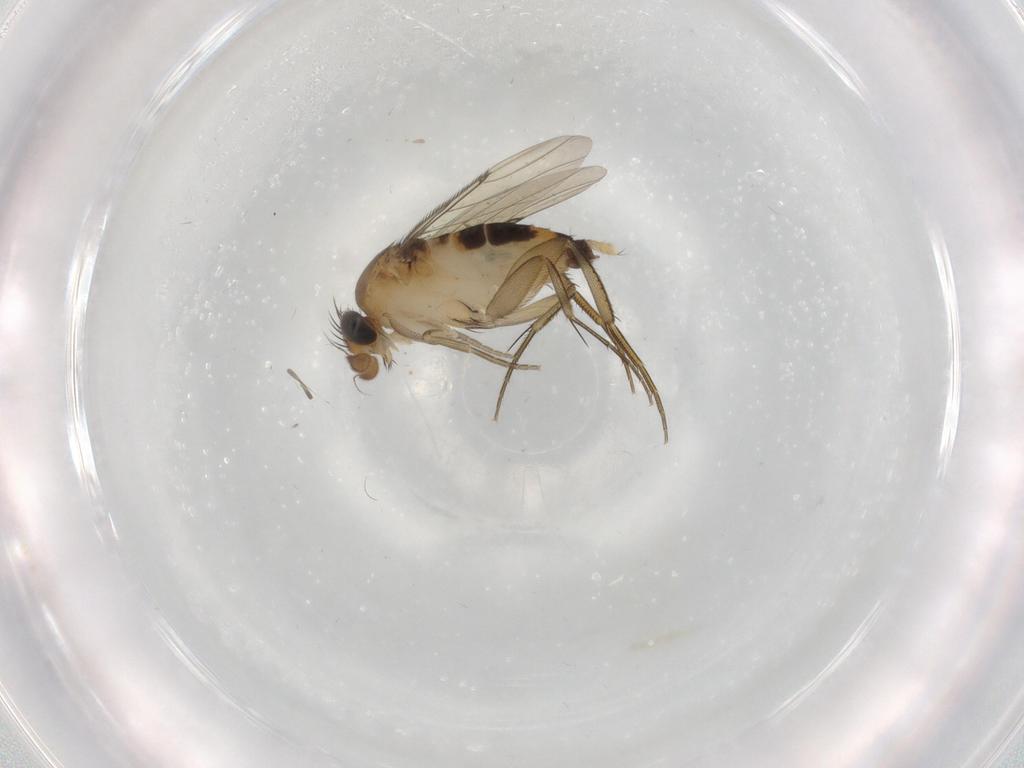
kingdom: Animalia
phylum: Arthropoda
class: Insecta
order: Diptera
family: Phoridae
